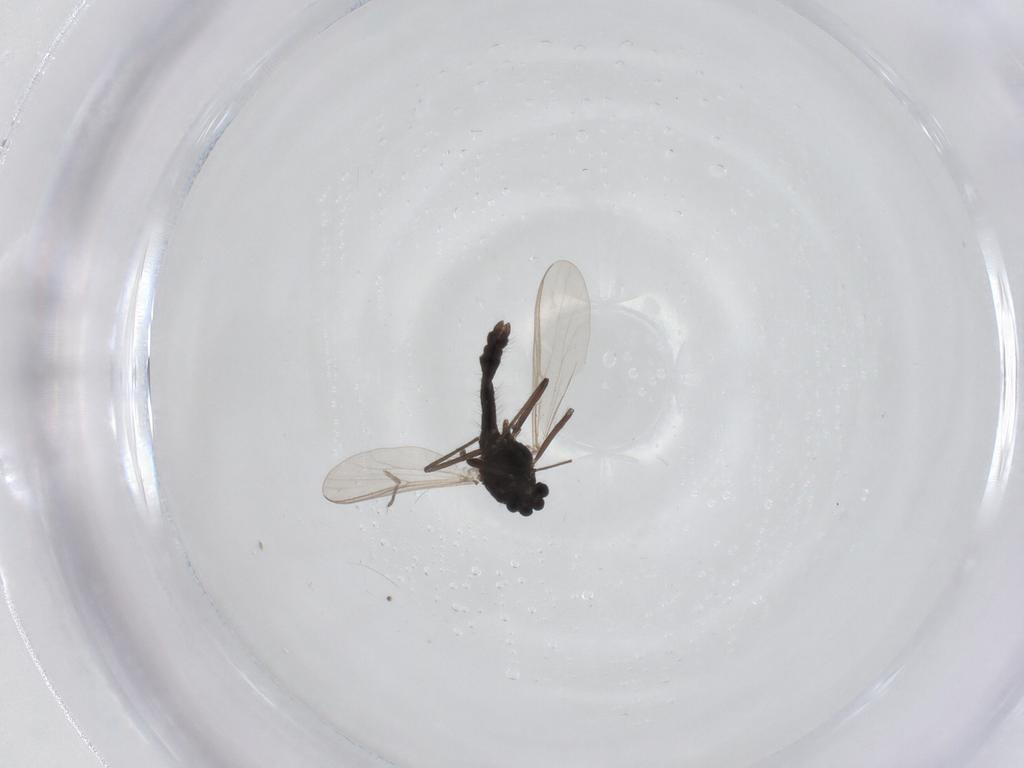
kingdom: Animalia
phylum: Arthropoda
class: Insecta
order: Diptera
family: Chironomidae
